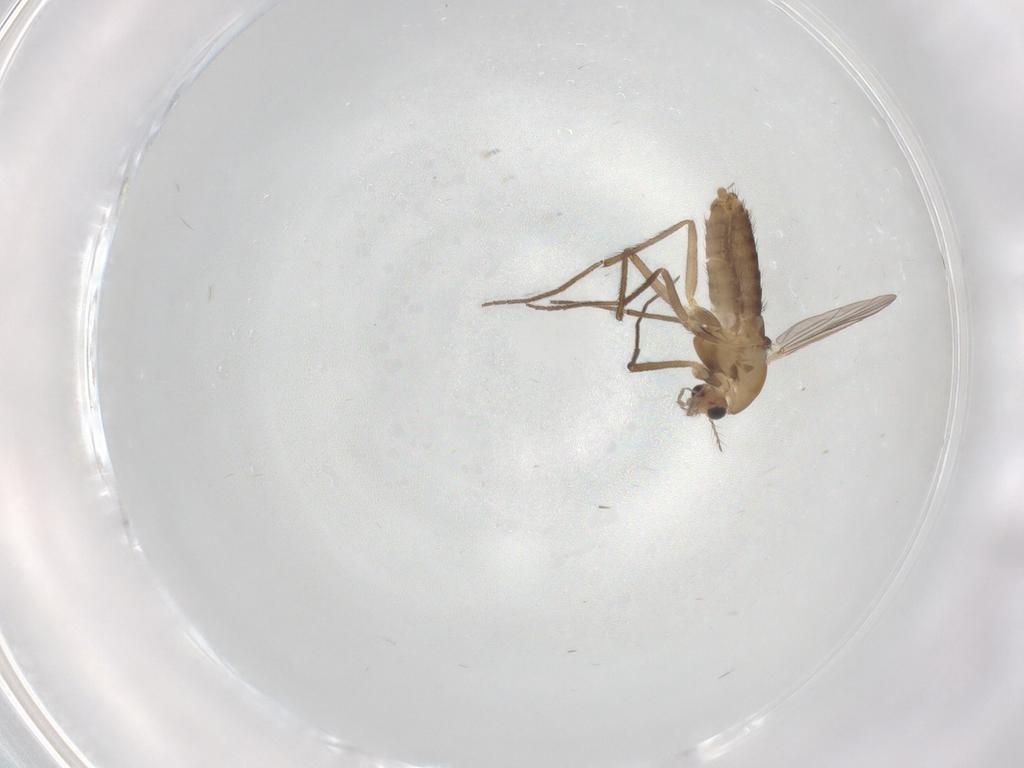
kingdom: Animalia
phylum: Arthropoda
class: Insecta
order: Diptera
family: Chironomidae
